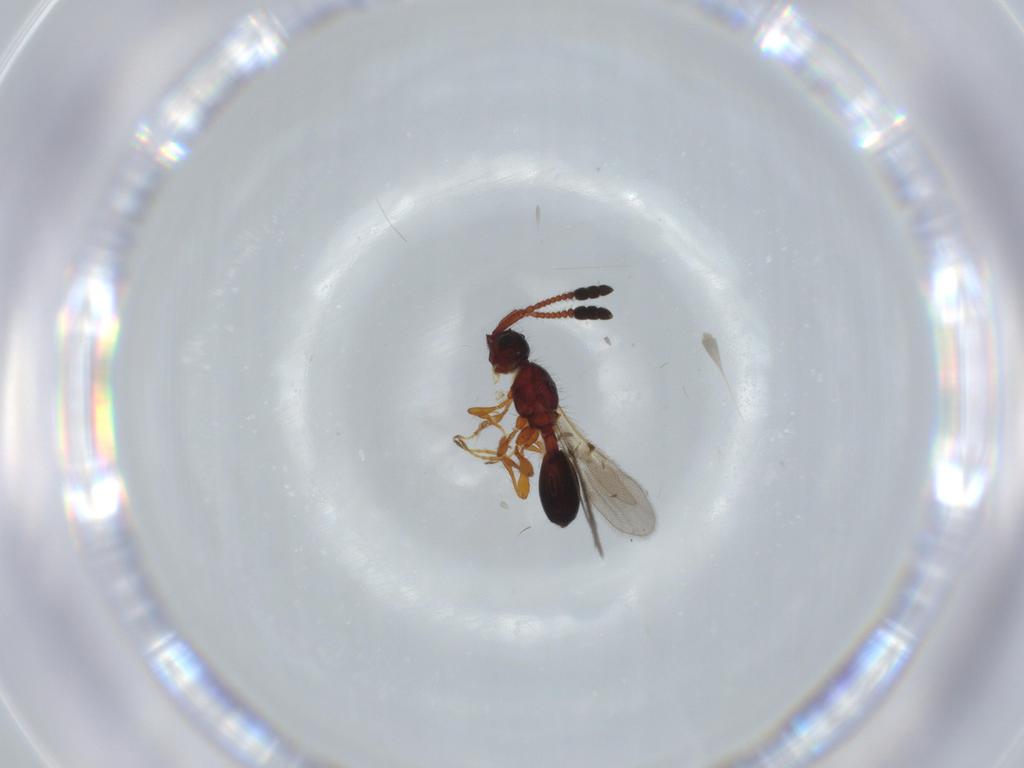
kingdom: Animalia
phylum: Arthropoda
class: Insecta
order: Hymenoptera
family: Diapriidae
